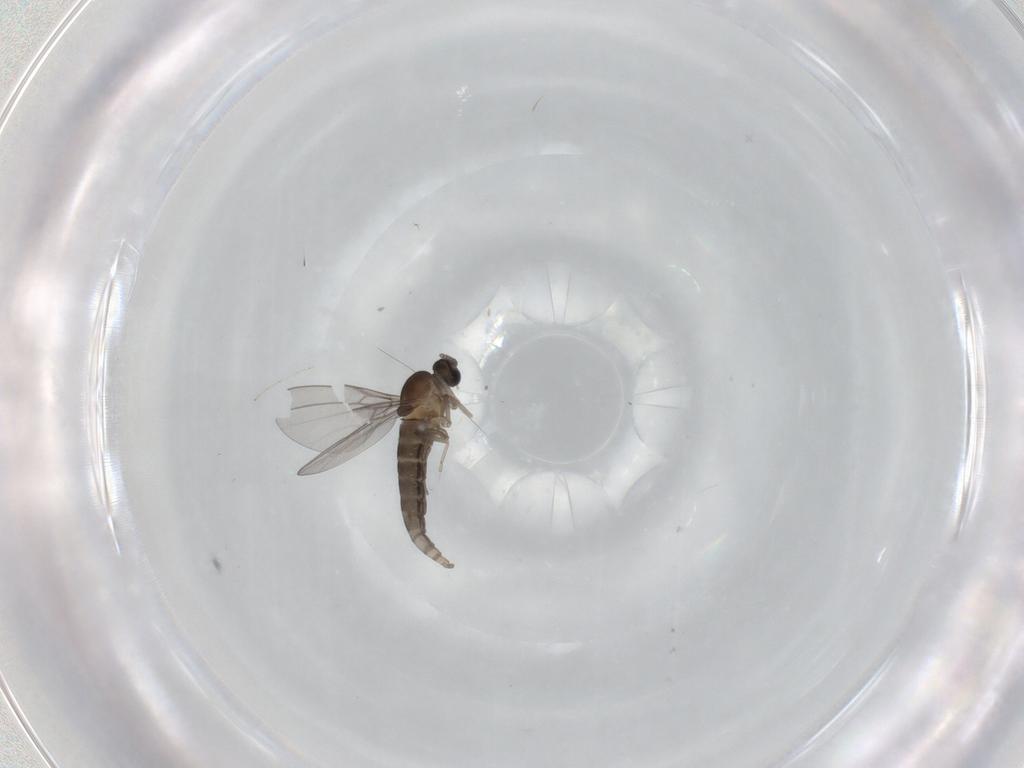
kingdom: Animalia
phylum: Arthropoda
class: Insecta
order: Diptera
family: Cecidomyiidae
